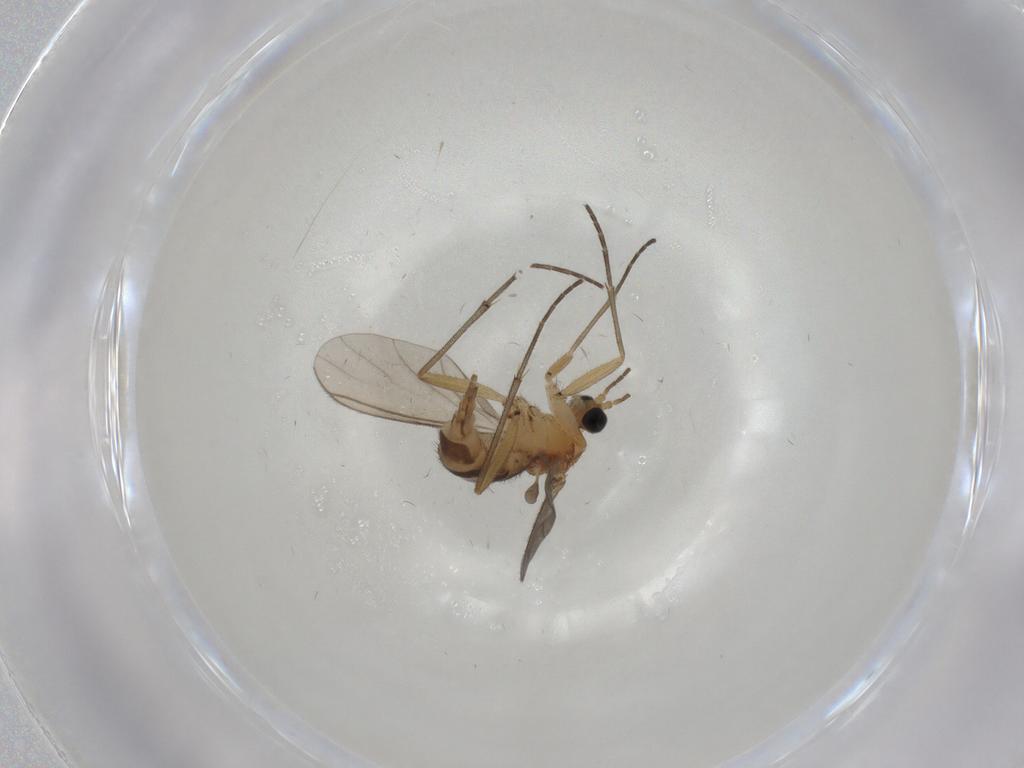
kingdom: Animalia
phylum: Arthropoda
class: Insecta
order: Diptera
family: Sciaridae
